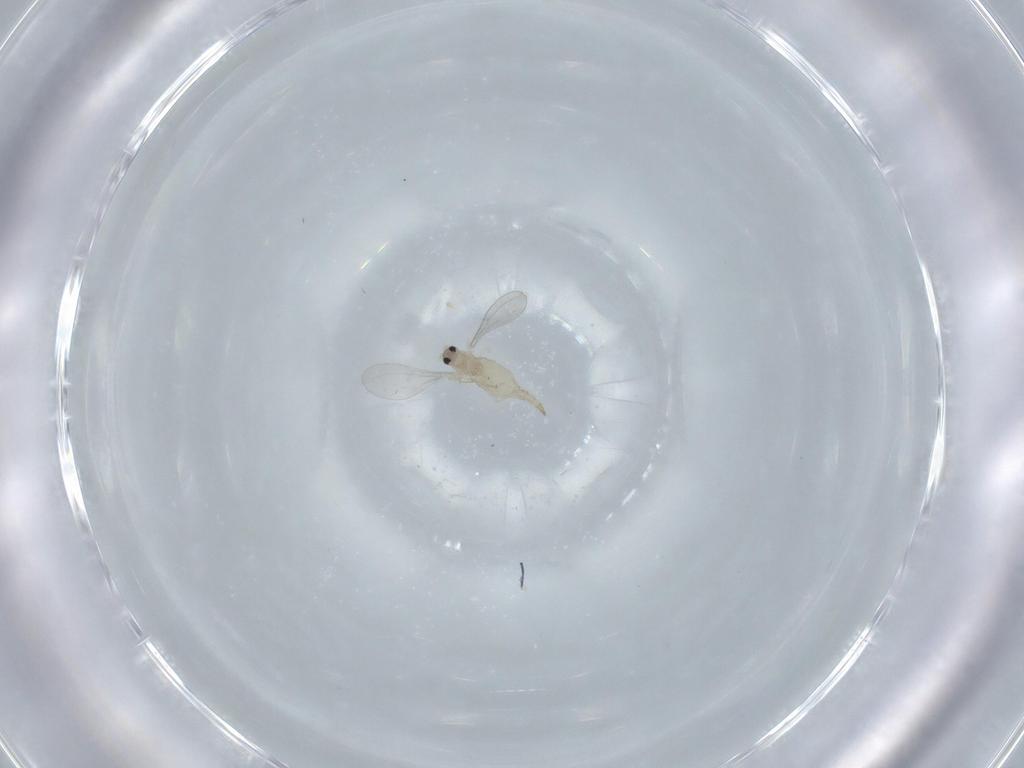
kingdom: Animalia
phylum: Arthropoda
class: Insecta
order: Diptera
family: Cecidomyiidae
